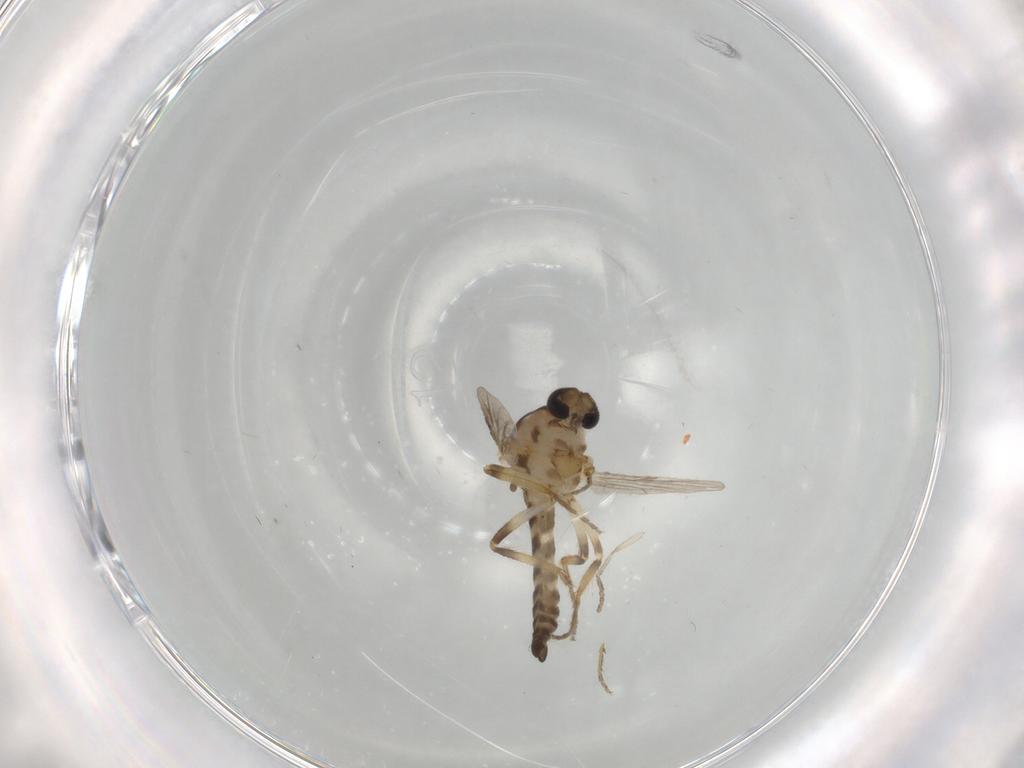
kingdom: Animalia
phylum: Arthropoda
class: Insecta
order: Diptera
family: Ceratopogonidae
